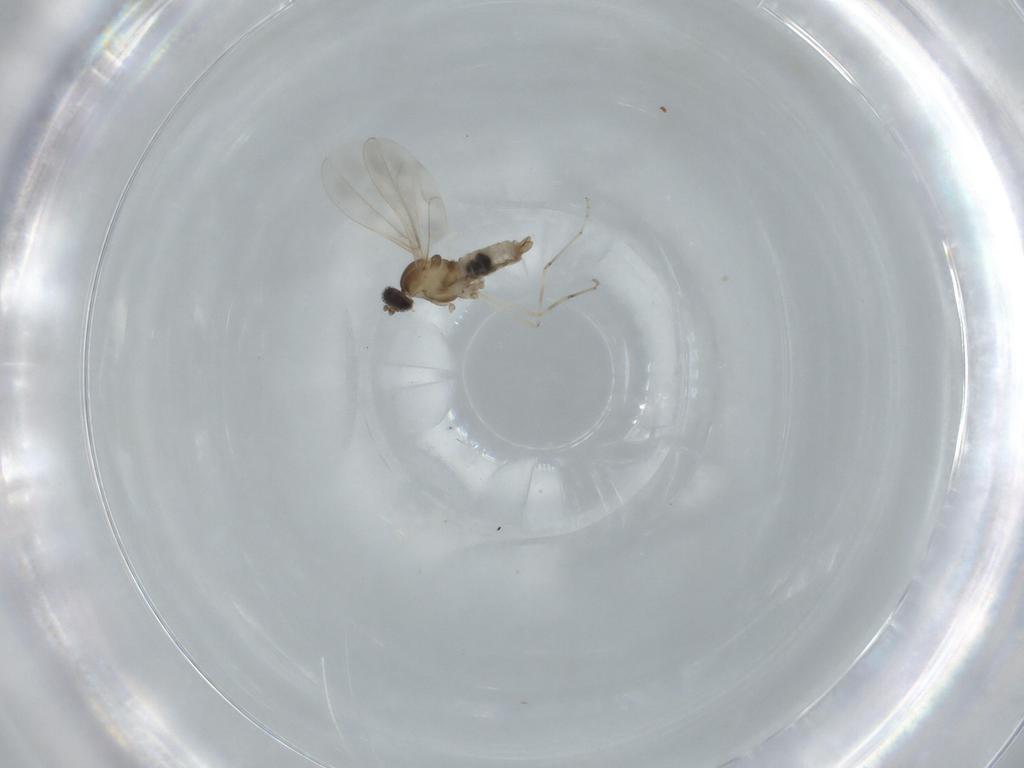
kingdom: Animalia
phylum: Arthropoda
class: Insecta
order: Diptera
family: Cecidomyiidae
